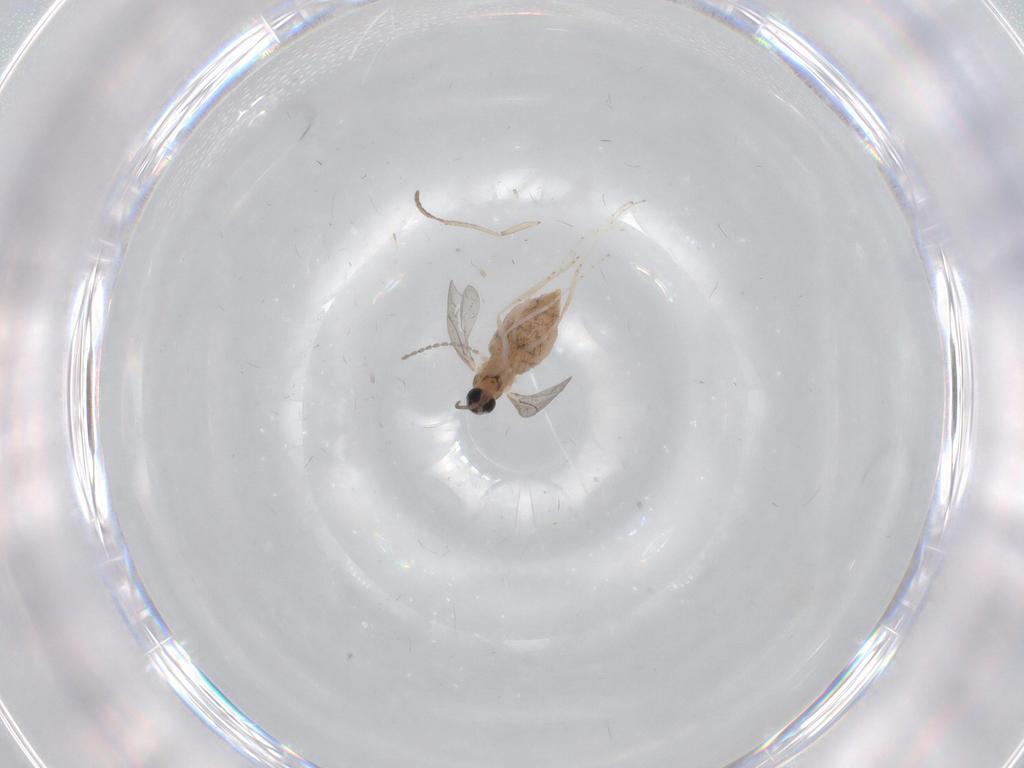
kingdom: Animalia
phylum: Arthropoda
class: Insecta
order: Diptera
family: Cecidomyiidae
